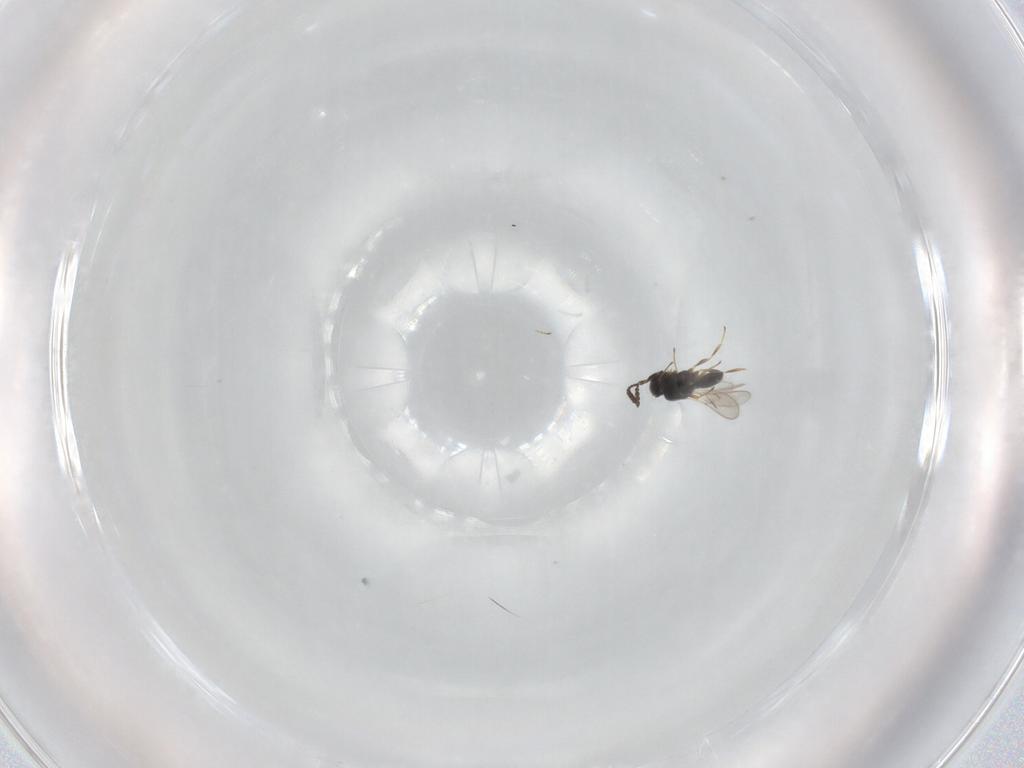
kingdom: Animalia
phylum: Arthropoda
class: Insecta
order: Hymenoptera
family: Scelionidae
